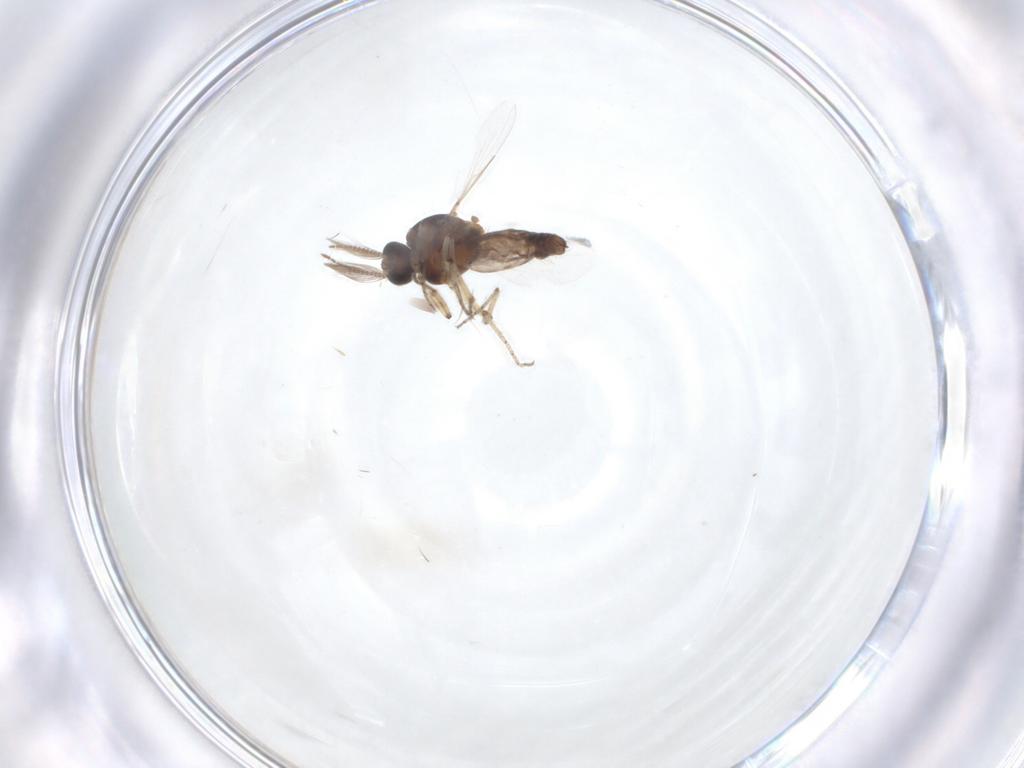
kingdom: Animalia
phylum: Arthropoda
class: Insecta
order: Diptera
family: Ceratopogonidae
